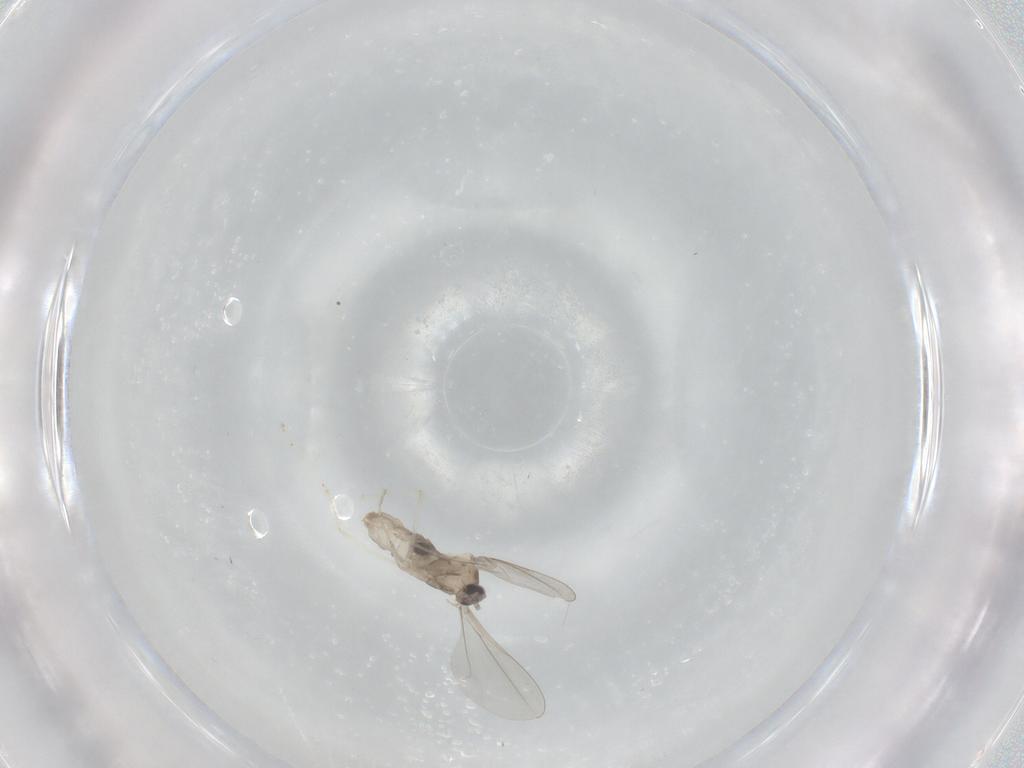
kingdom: Animalia
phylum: Arthropoda
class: Insecta
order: Diptera
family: Cecidomyiidae
